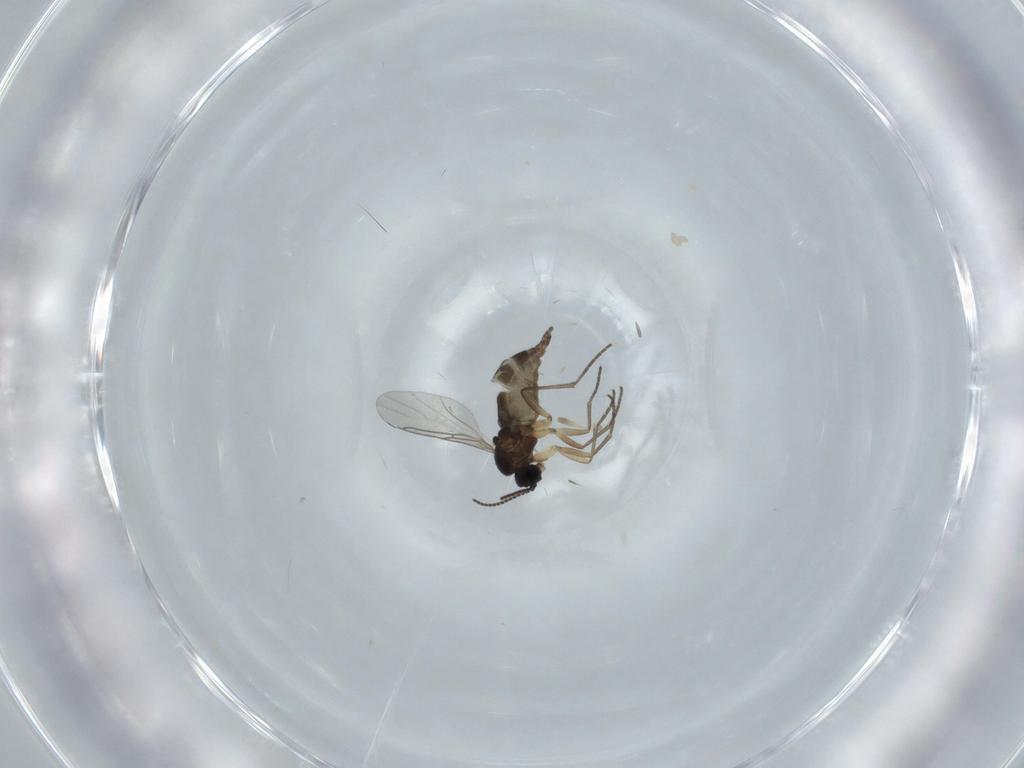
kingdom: Animalia
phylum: Arthropoda
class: Insecta
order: Diptera
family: Sciaridae
